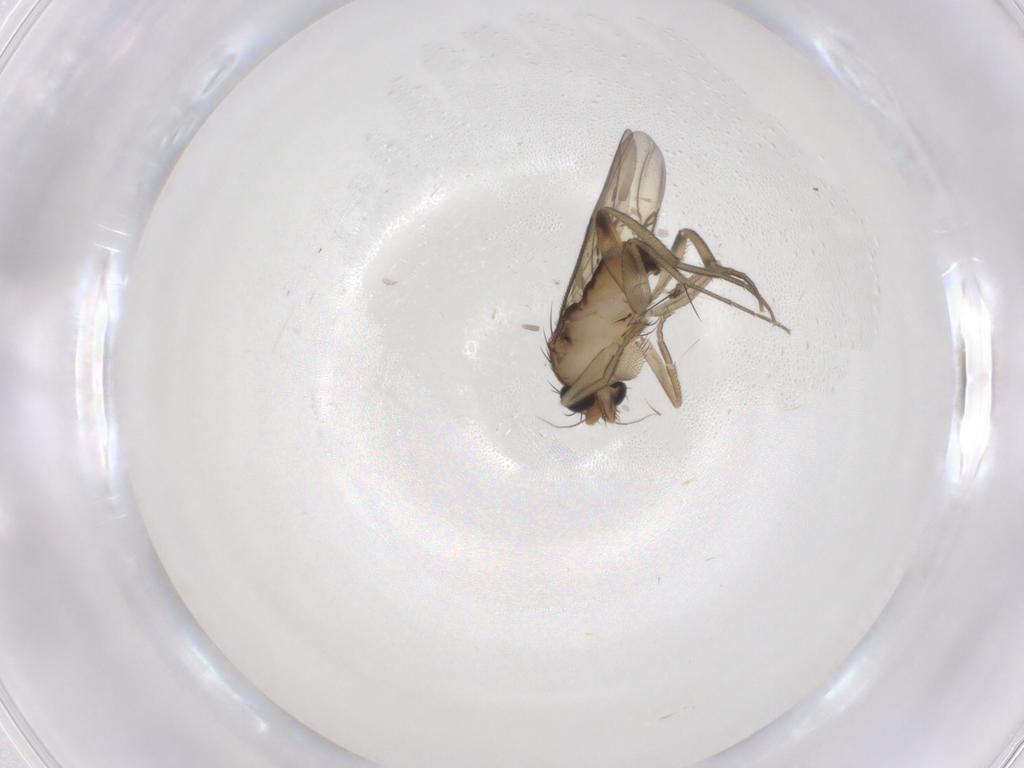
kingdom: Animalia
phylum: Arthropoda
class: Insecta
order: Diptera
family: Phoridae
